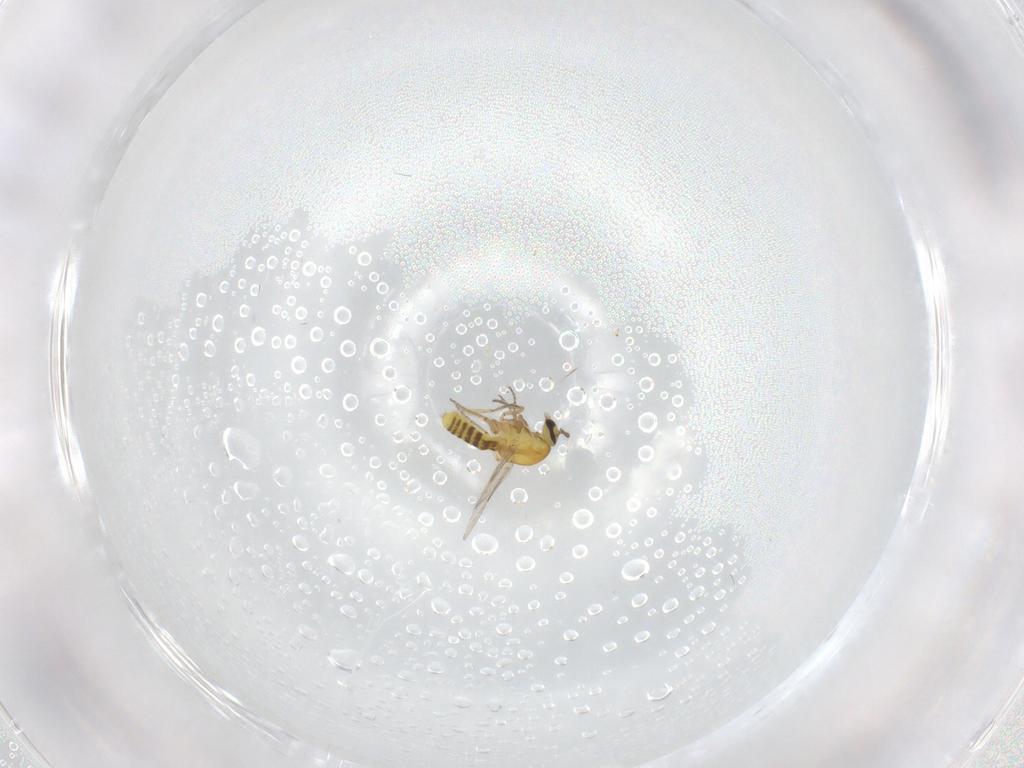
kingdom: Animalia
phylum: Arthropoda
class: Insecta
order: Diptera
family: Ceratopogonidae
